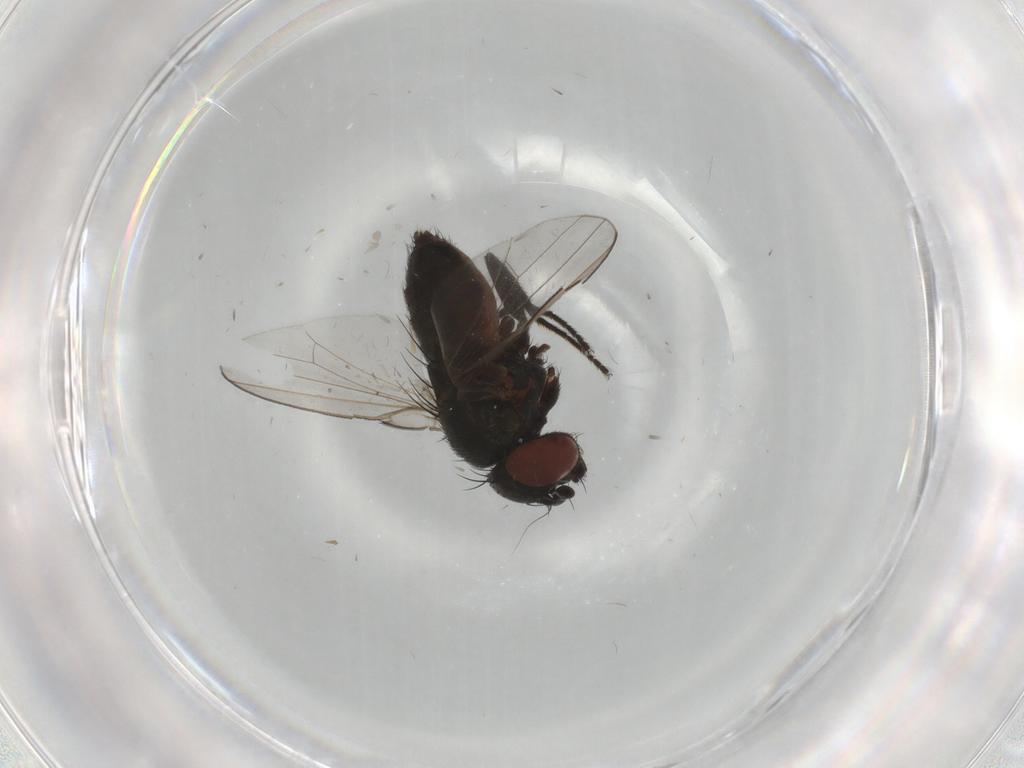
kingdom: Animalia
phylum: Arthropoda
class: Insecta
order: Diptera
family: Milichiidae
